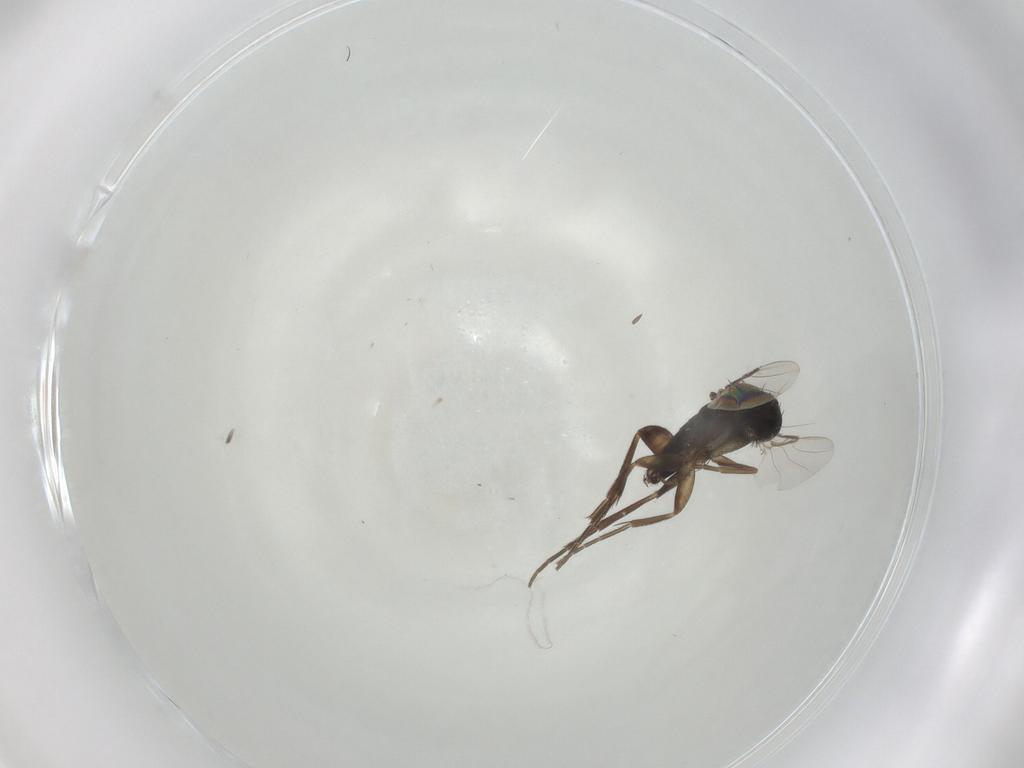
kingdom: Animalia
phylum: Arthropoda
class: Insecta
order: Diptera
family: Phoridae
